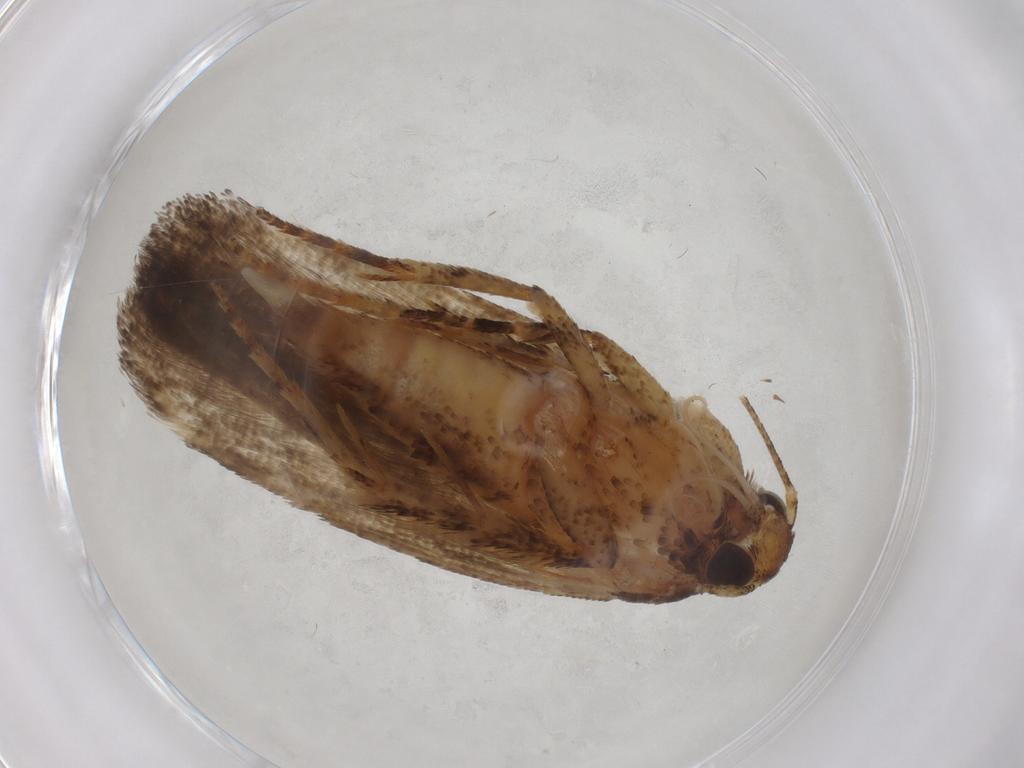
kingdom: Animalia
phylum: Arthropoda
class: Insecta
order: Lepidoptera
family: Gelechiidae
